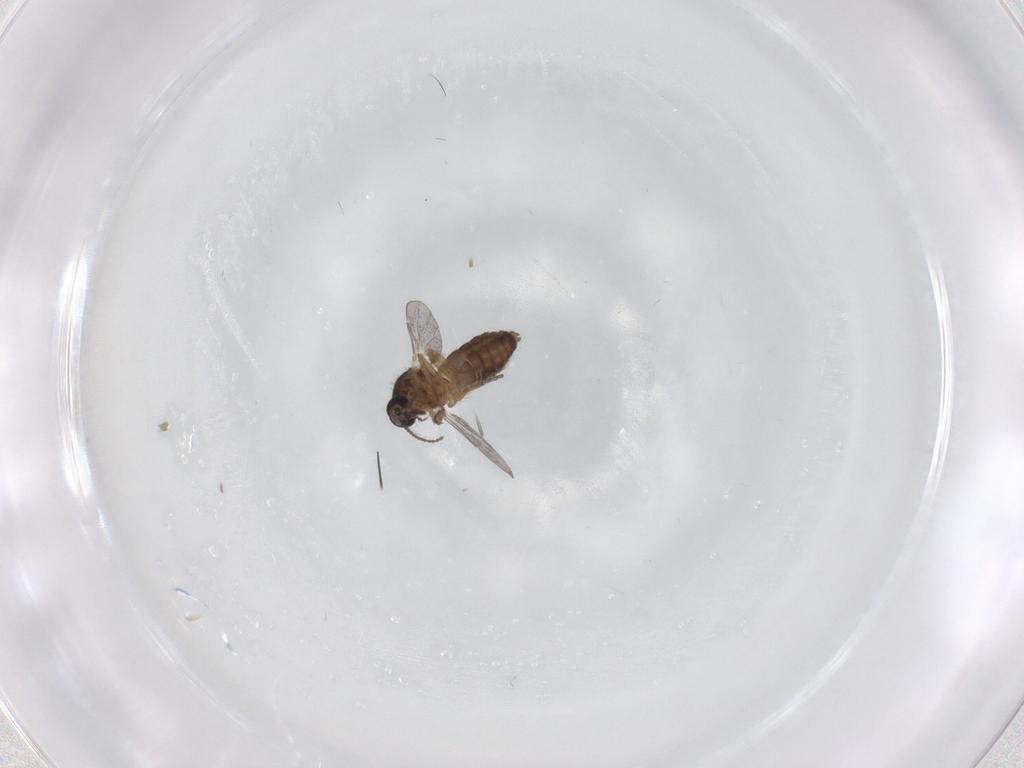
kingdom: Animalia
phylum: Arthropoda
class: Insecta
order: Diptera
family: Ceratopogonidae
